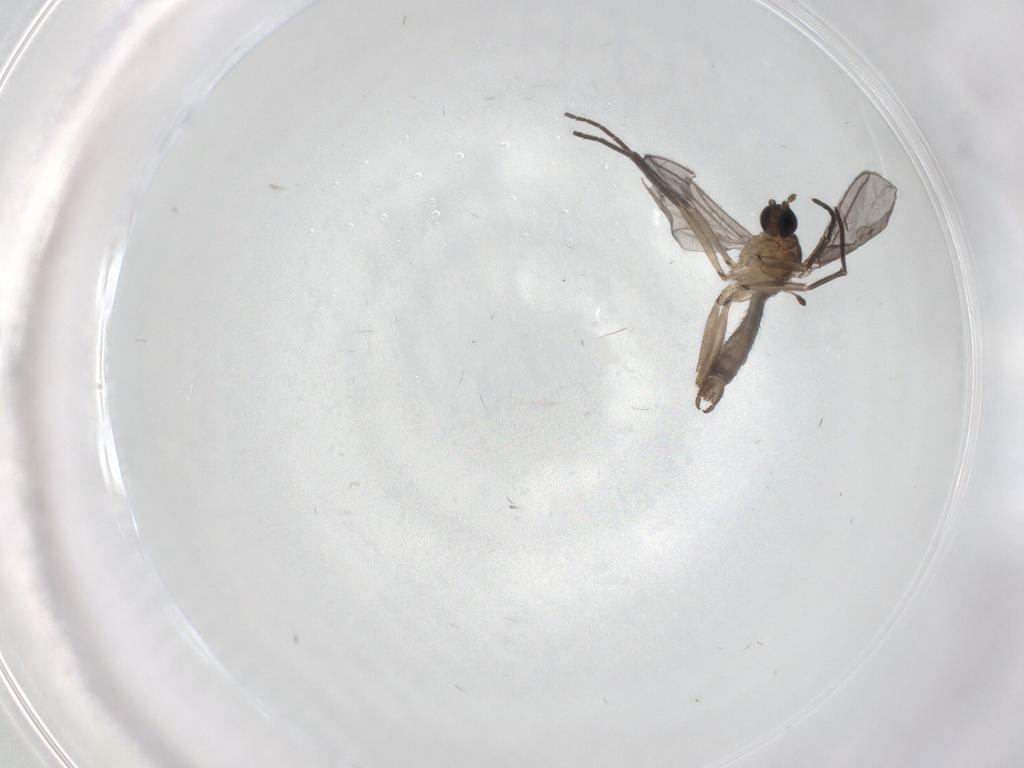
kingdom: Animalia
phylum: Arthropoda
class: Insecta
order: Diptera
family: Sciaridae
